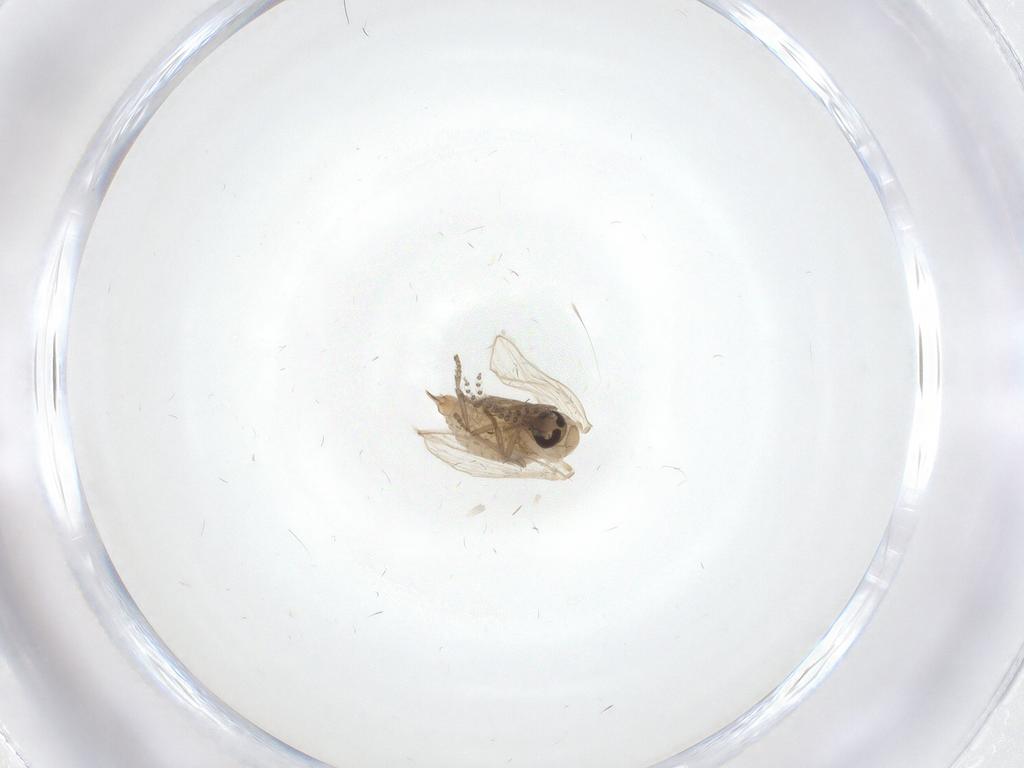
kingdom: Animalia
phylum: Arthropoda
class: Insecta
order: Diptera
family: Psychodidae
